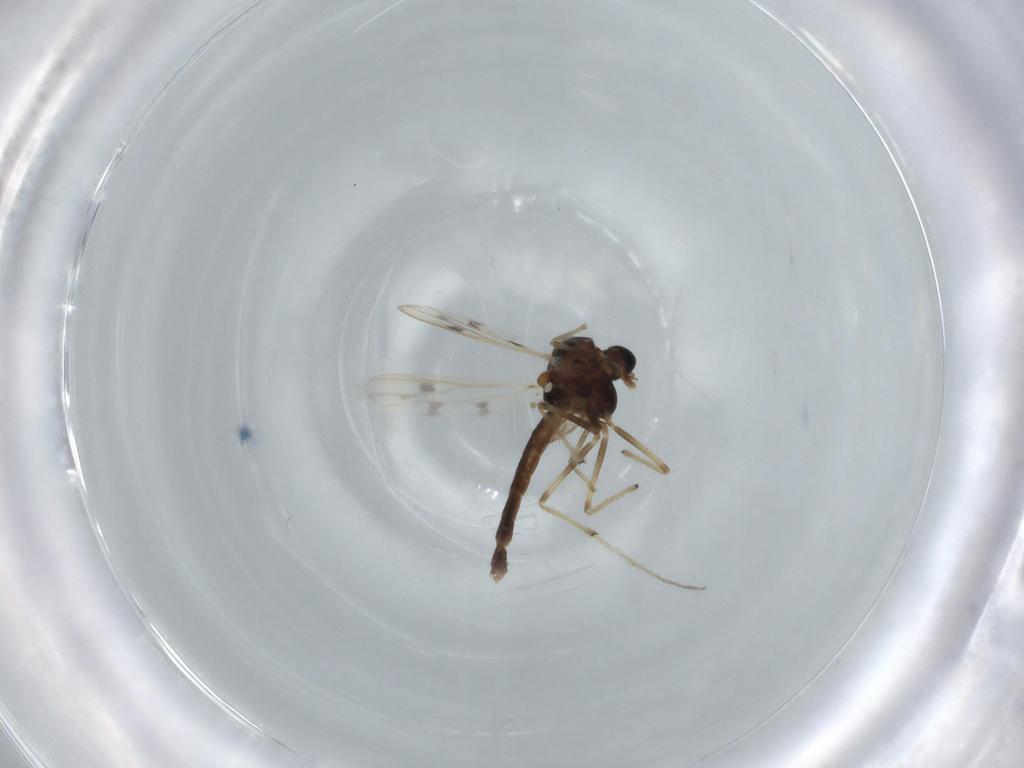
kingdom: Animalia
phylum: Arthropoda
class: Insecta
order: Diptera
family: Chironomidae
